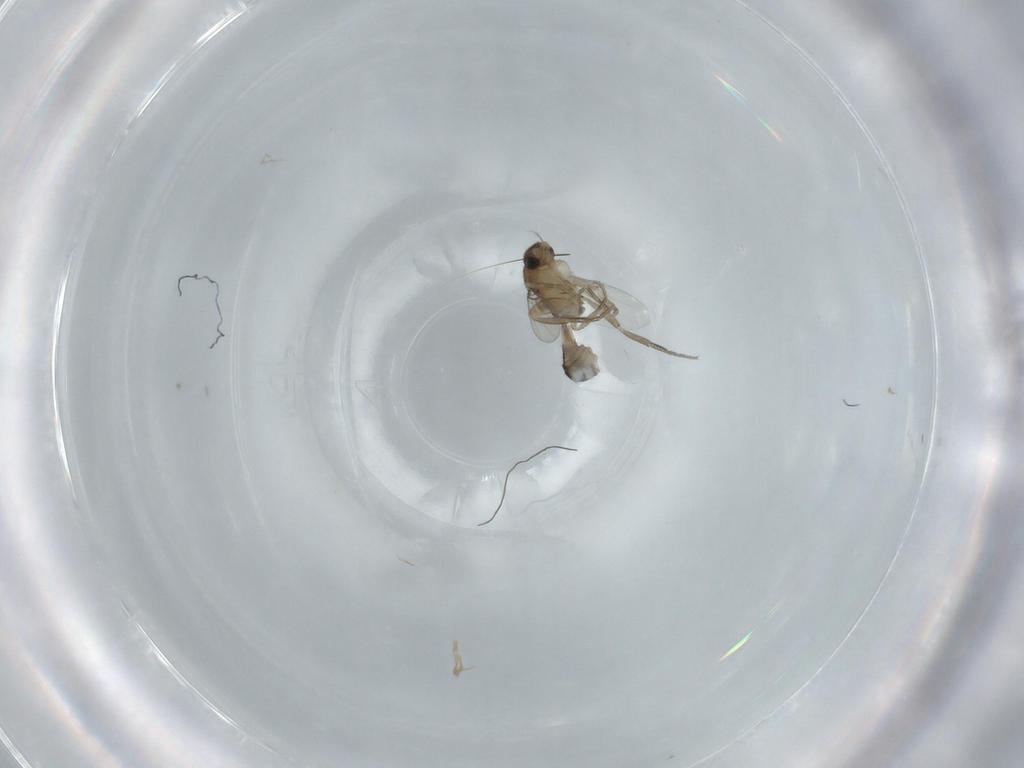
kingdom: Animalia
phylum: Arthropoda
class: Insecta
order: Diptera
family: Phoridae
